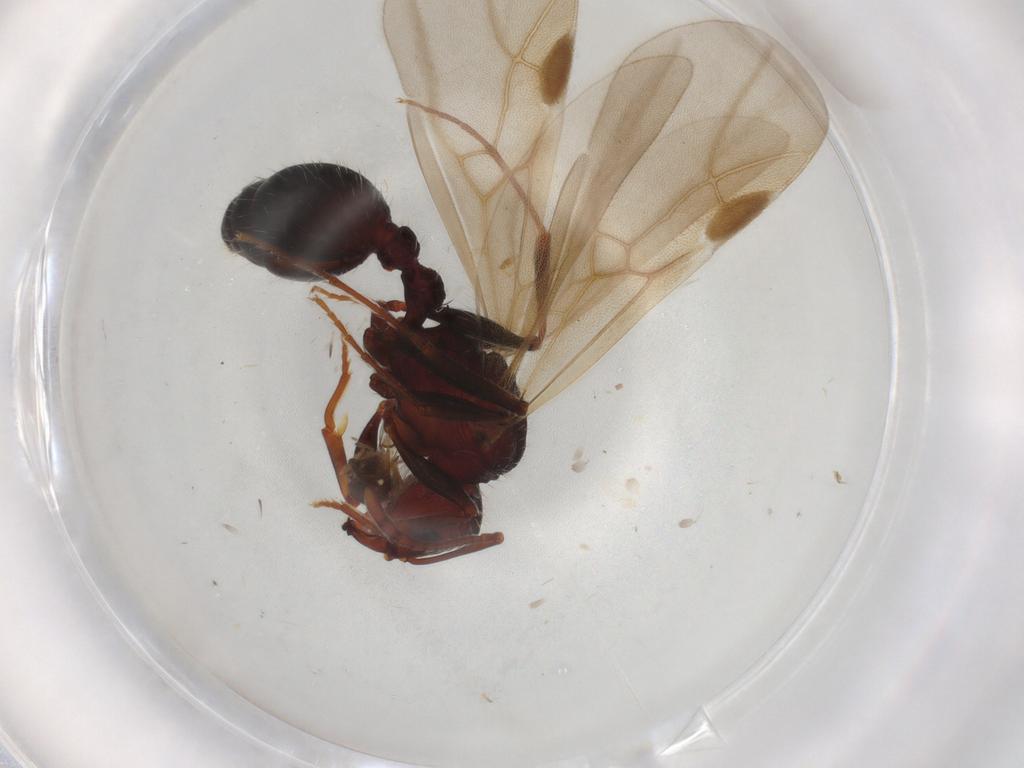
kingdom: Animalia
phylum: Arthropoda
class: Insecta
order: Hymenoptera
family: Formicidae
